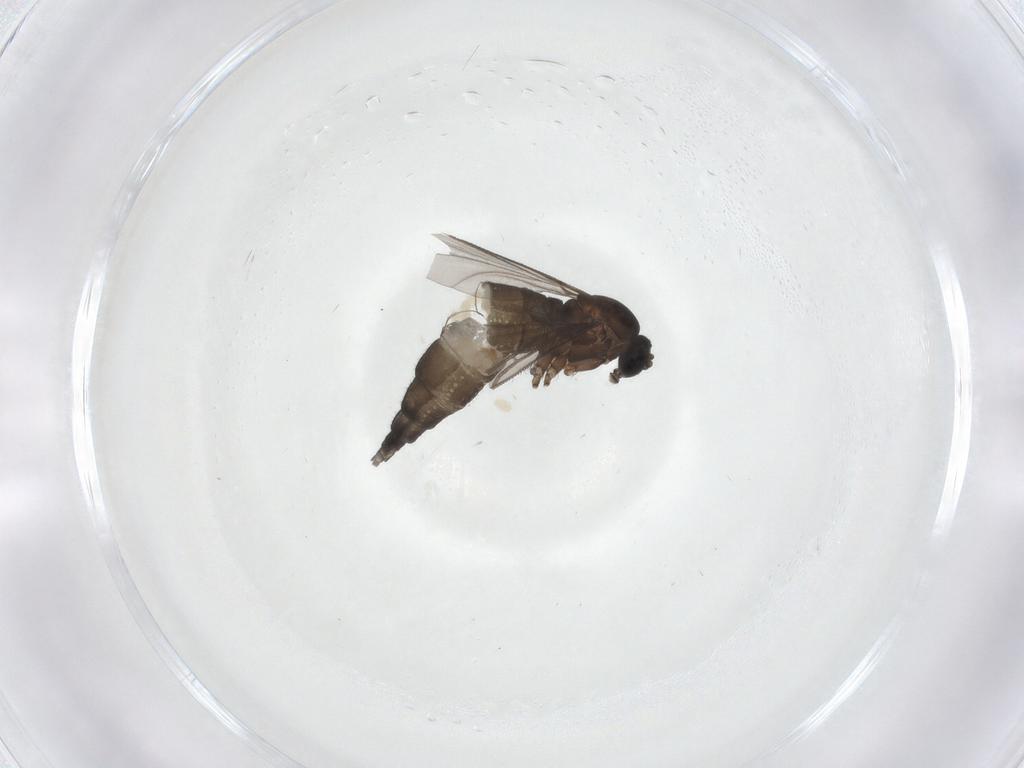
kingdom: Animalia
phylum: Arthropoda
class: Insecta
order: Diptera
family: Sciaridae
